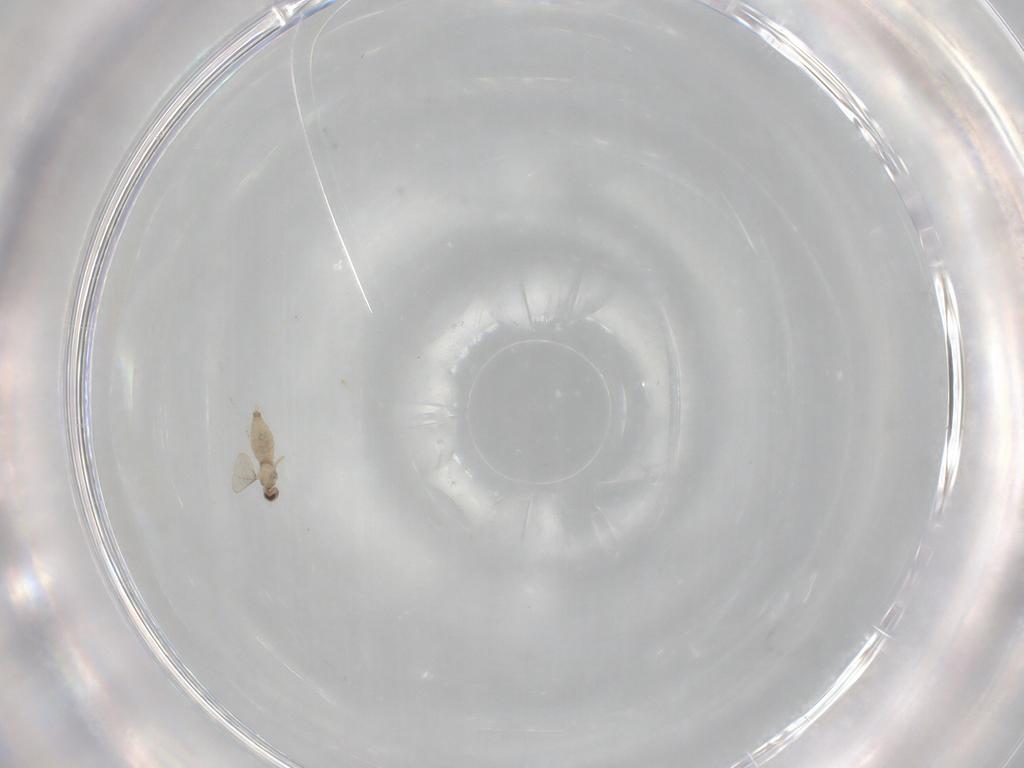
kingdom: Animalia
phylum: Arthropoda
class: Insecta
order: Diptera
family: Cecidomyiidae
